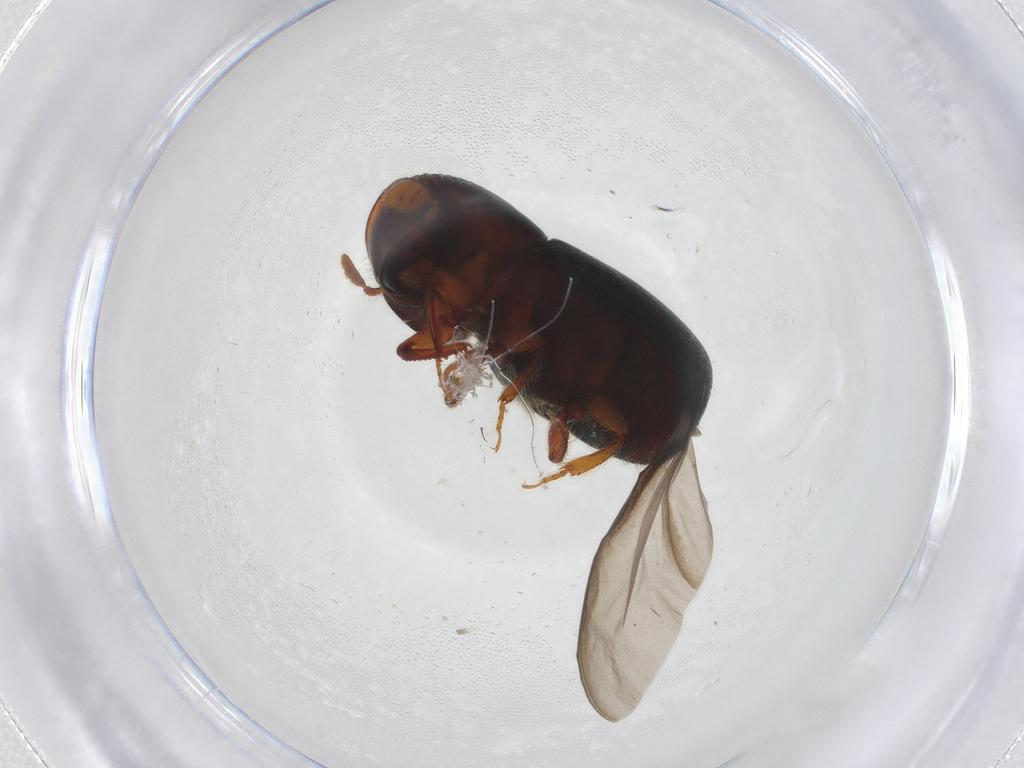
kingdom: Animalia
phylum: Arthropoda
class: Insecta
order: Coleoptera
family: Curculionidae
